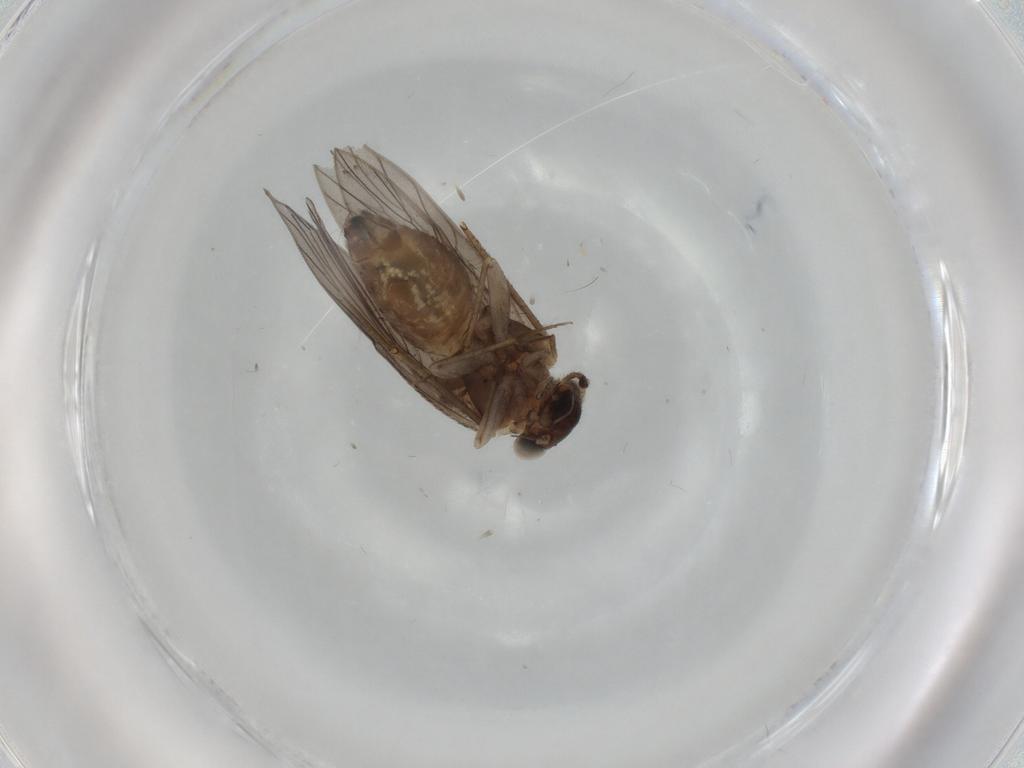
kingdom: Animalia
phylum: Arthropoda
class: Insecta
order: Psocodea
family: Lepidopsocidae
